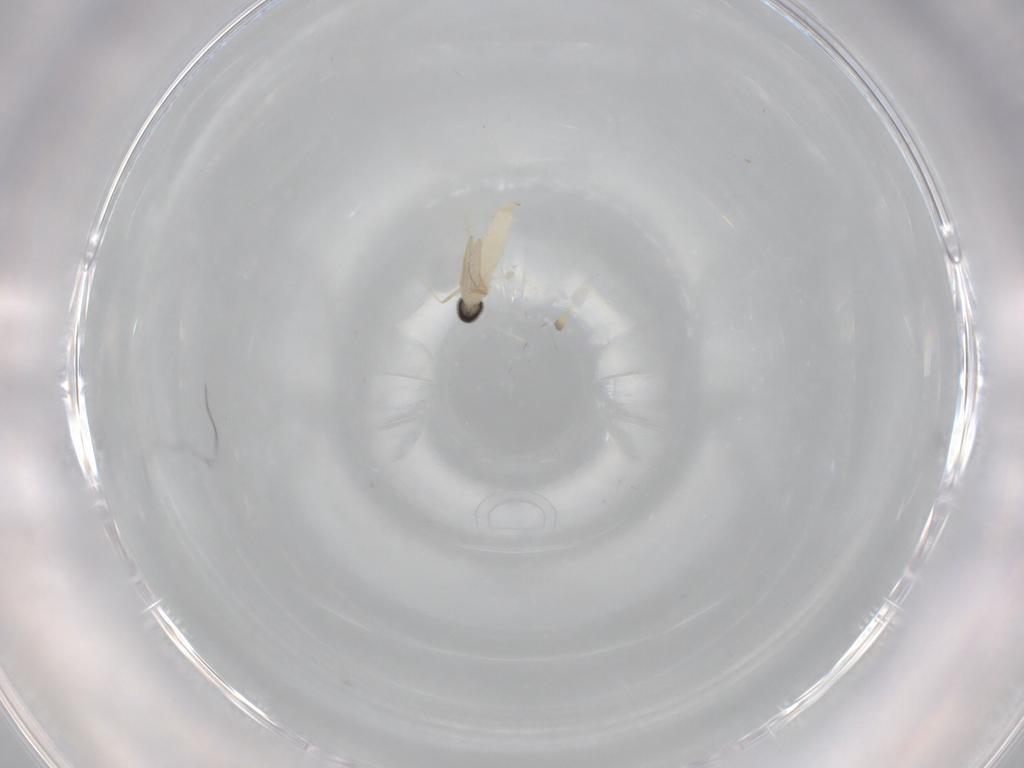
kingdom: Animalia
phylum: Arthropoda
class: Insecta
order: Diptera
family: Cecidomyiidae
